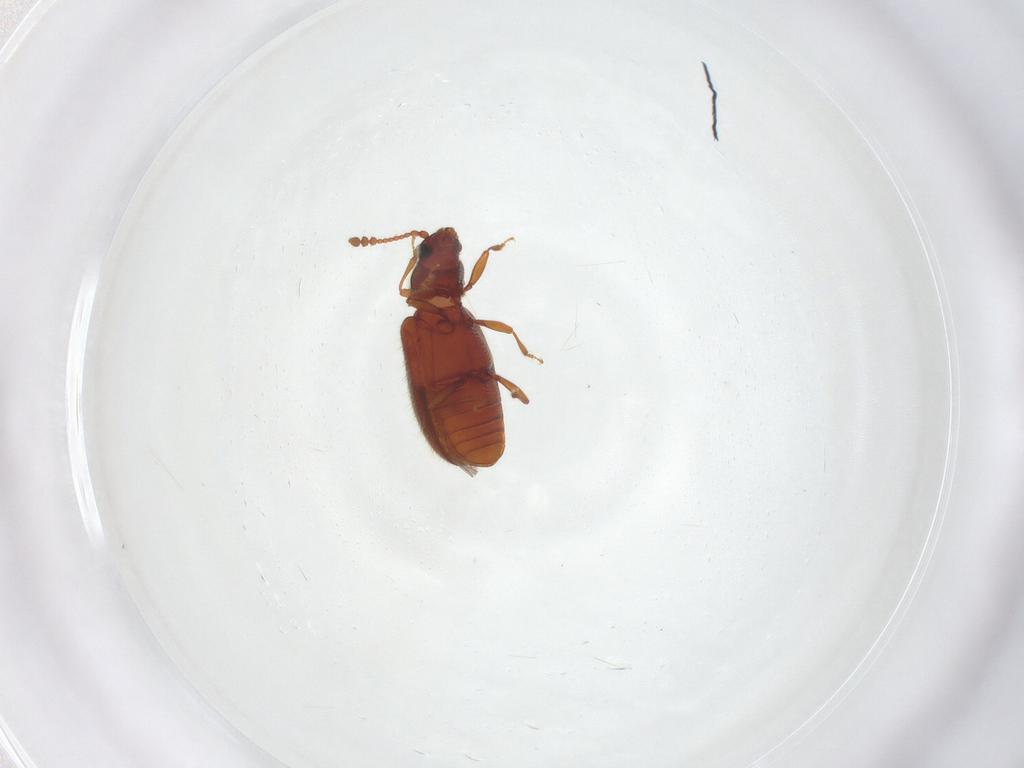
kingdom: Animalia
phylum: Arthropoda
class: Insecta
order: Coleoptera
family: Cryptophagidae
